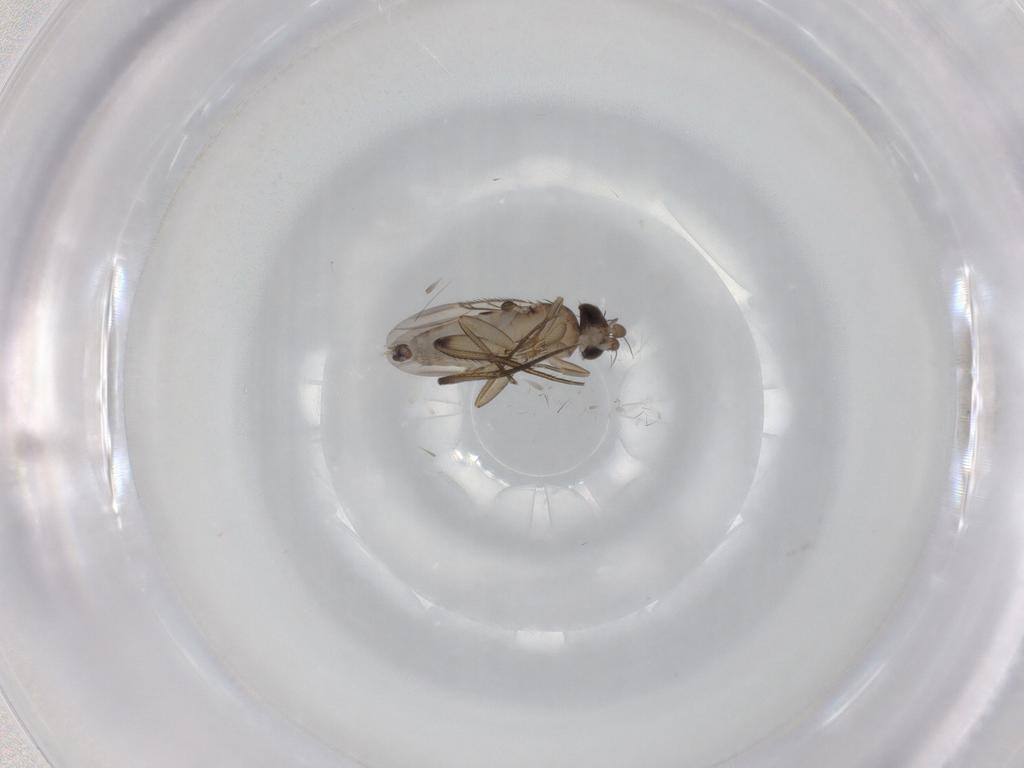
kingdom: Animalia
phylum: Arthropoda
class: Insecta
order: Diptera
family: Phoridae
